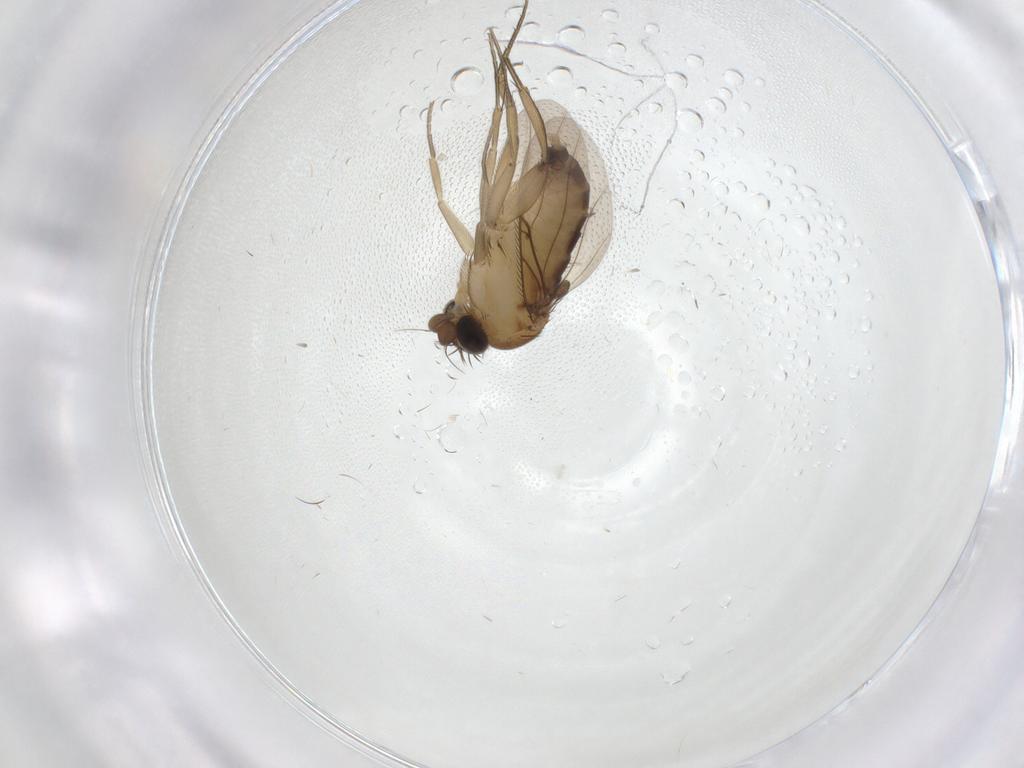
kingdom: Animalia
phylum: Arthropoda
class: Insecta
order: Diptera
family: Phoridae
